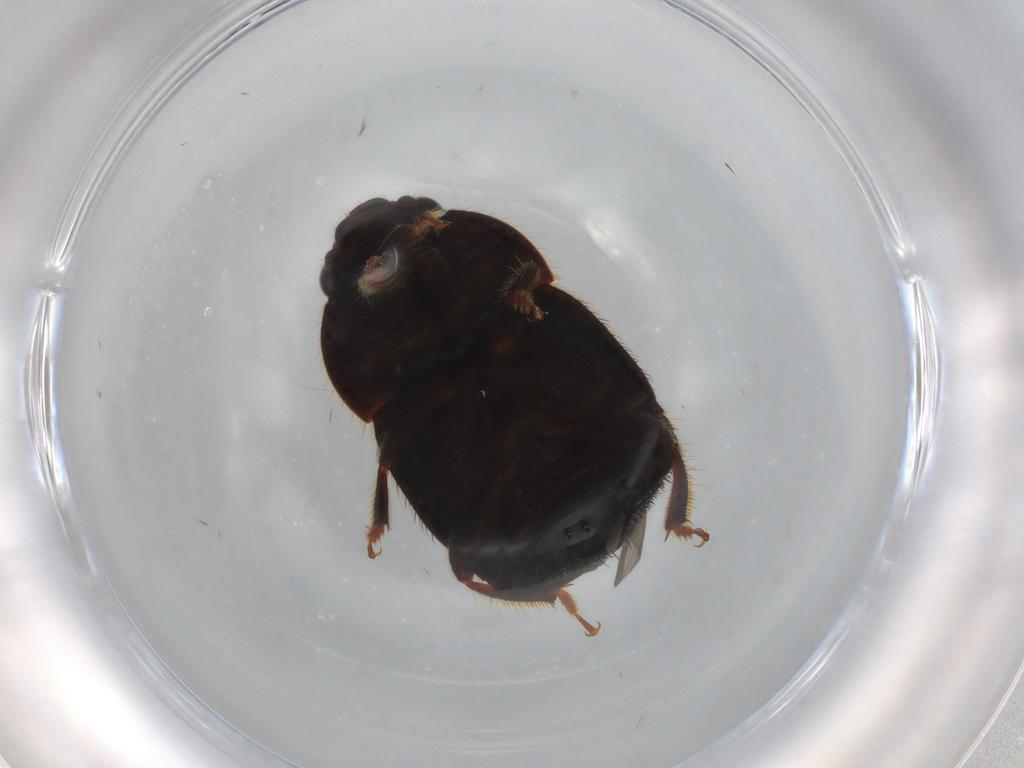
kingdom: Animalia
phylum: Arthropoda
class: Insecta
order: Coleoptera
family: Nitidulidae
